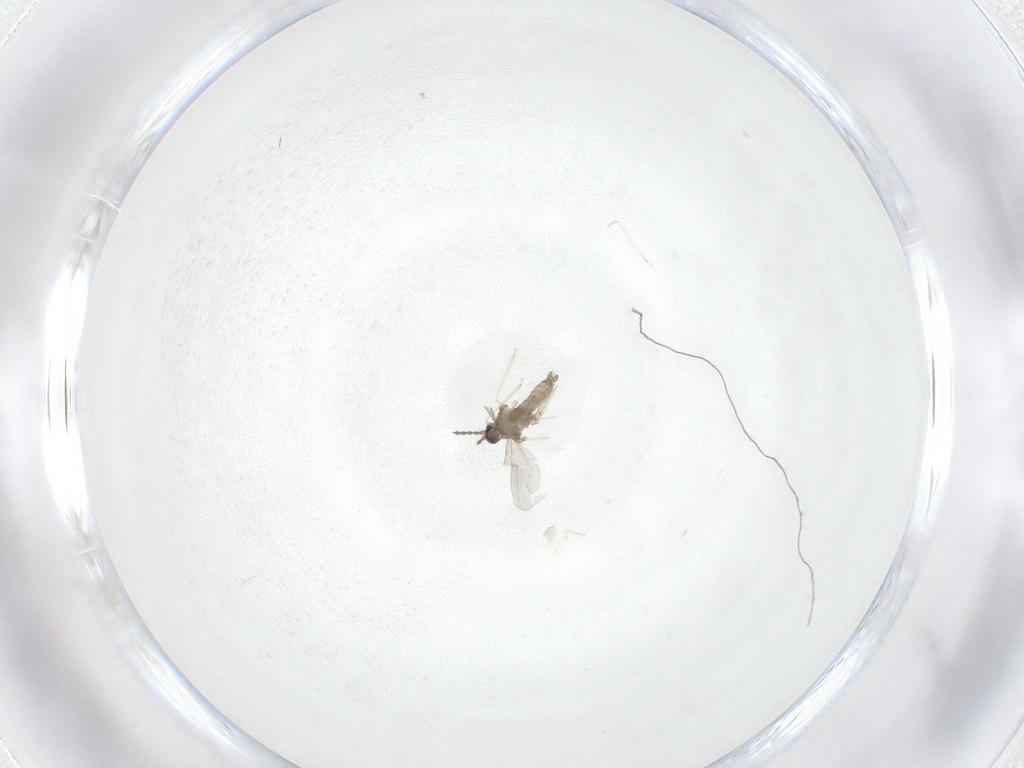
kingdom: Animalia
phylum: Arthropoda
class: Insecta
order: Diptera
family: Cecidomyiidae
